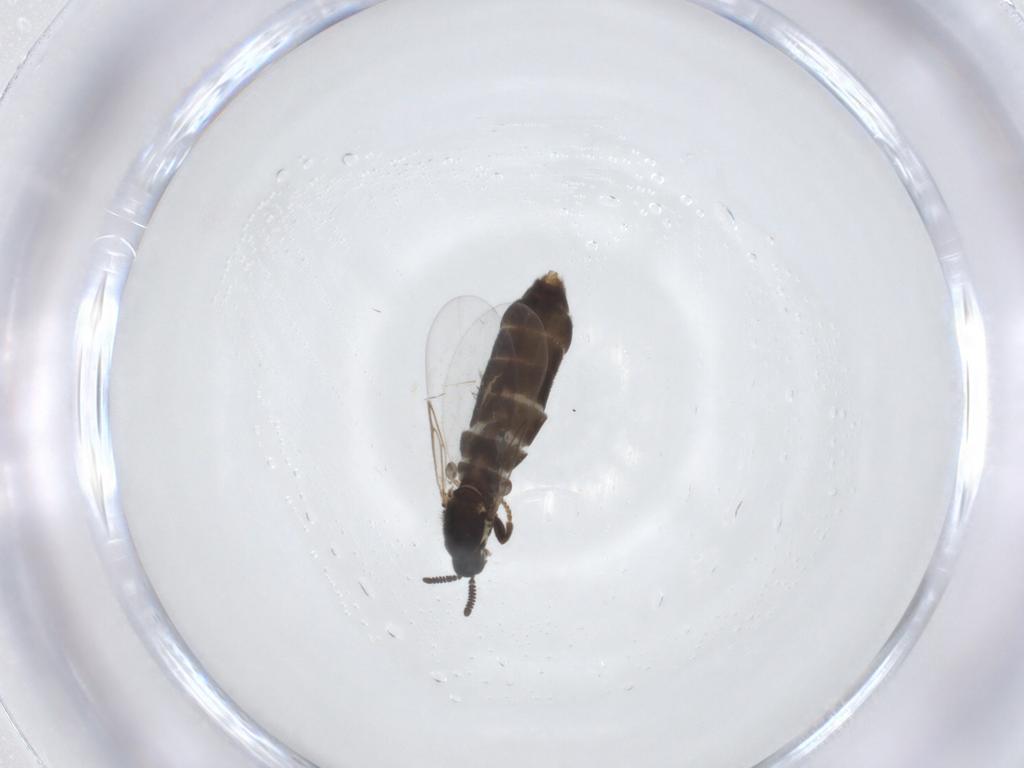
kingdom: Animalia
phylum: Arthropoda
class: Insecta
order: Diptera
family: Scatopsidae
